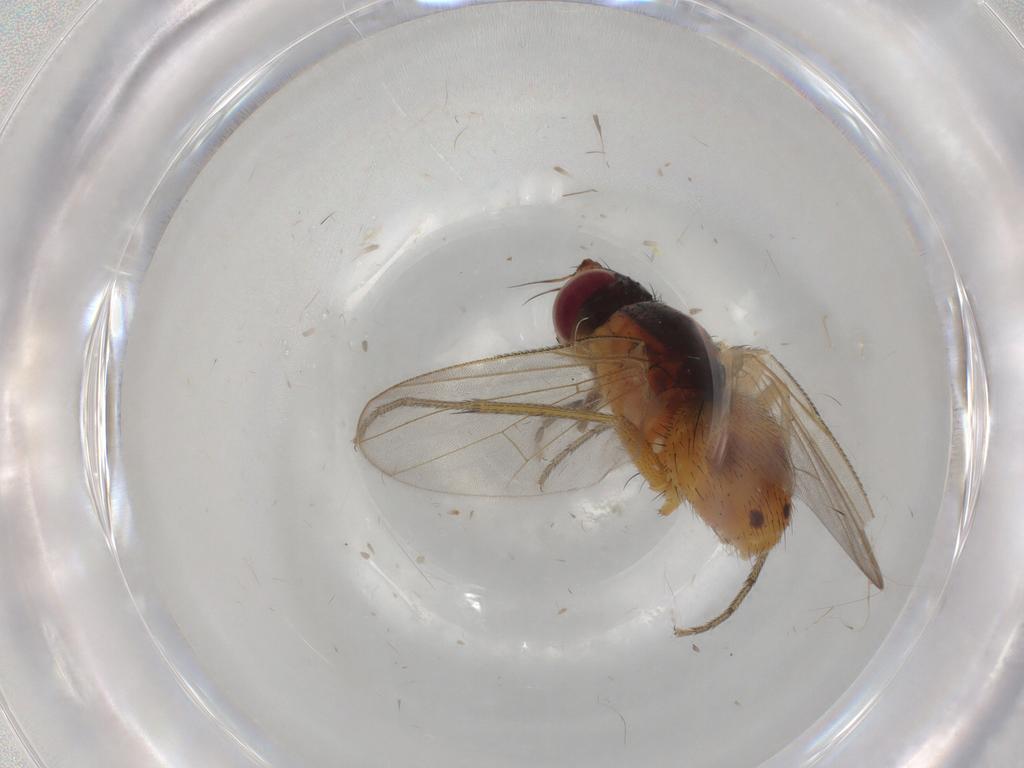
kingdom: Animalia
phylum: Arthropoda
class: Insecta
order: Diptera
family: Muscidae
